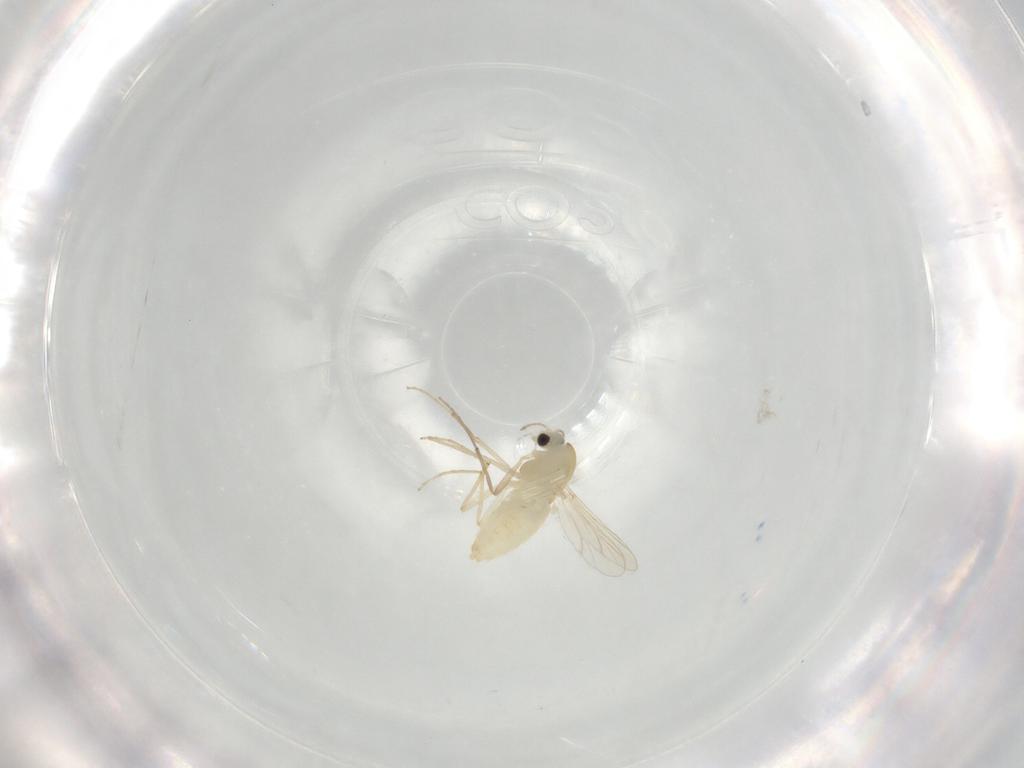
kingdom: Animalia
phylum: Arthropoda
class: Insecta
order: Diptera
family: Chironomidae
